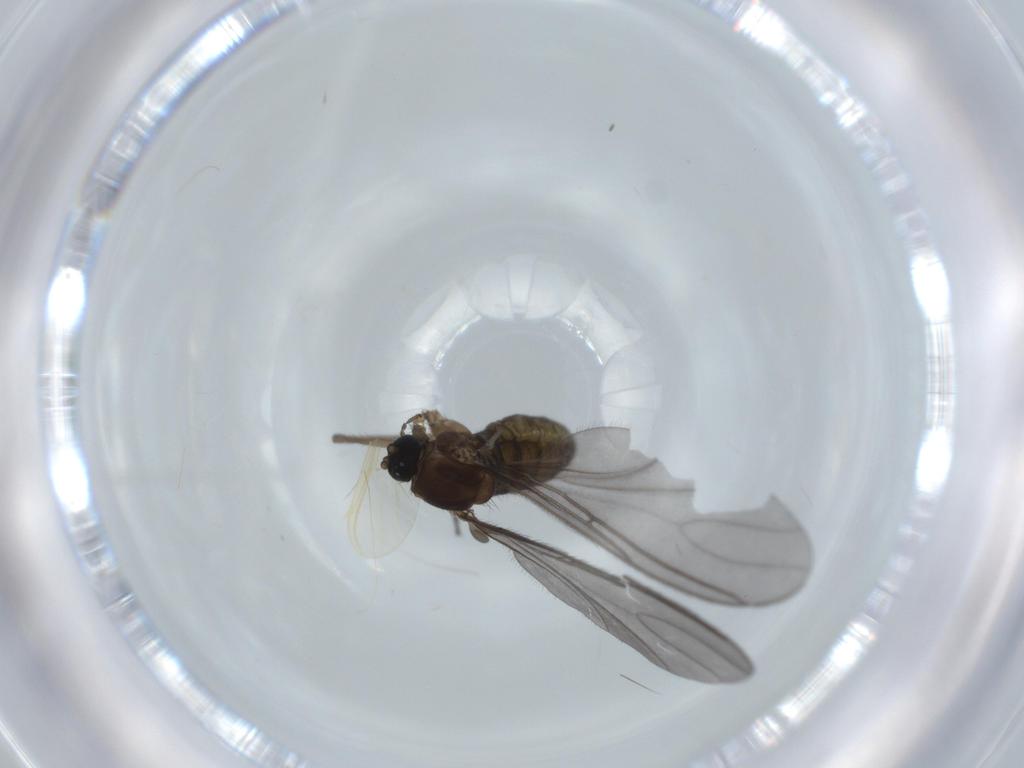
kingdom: Animalia
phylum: Arthropoda
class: Insecta
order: Diptera
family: Chironomidae
